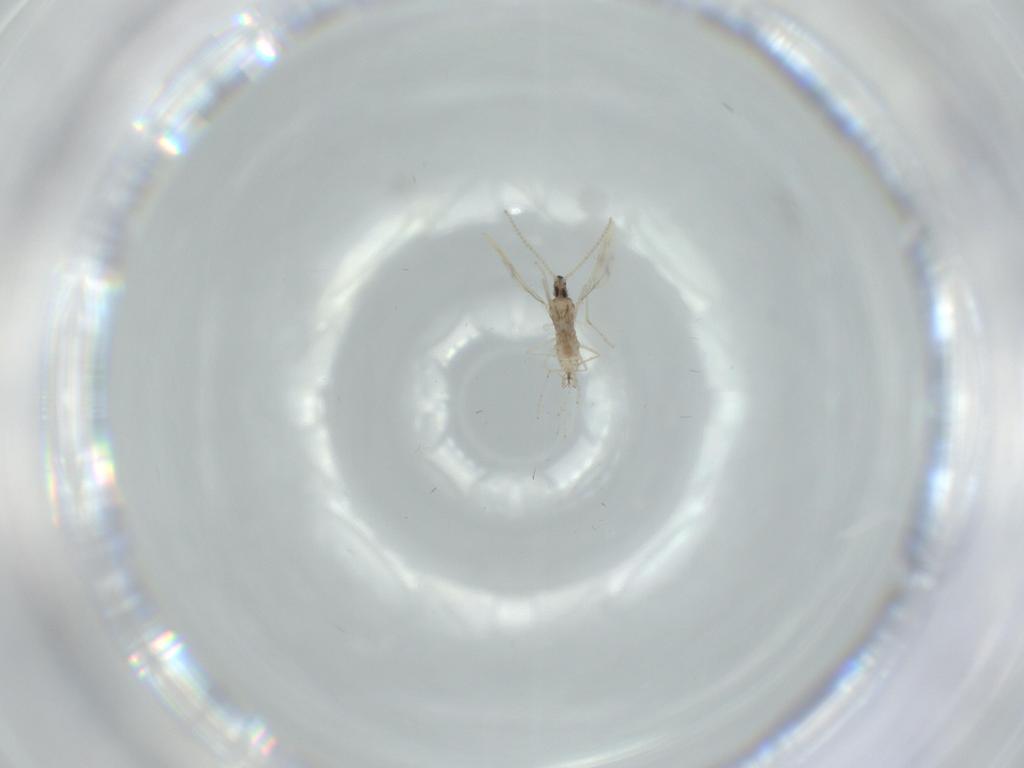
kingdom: Animalia
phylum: Arthropoda
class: Insecta
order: Diptera
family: Cecidomyiidae
